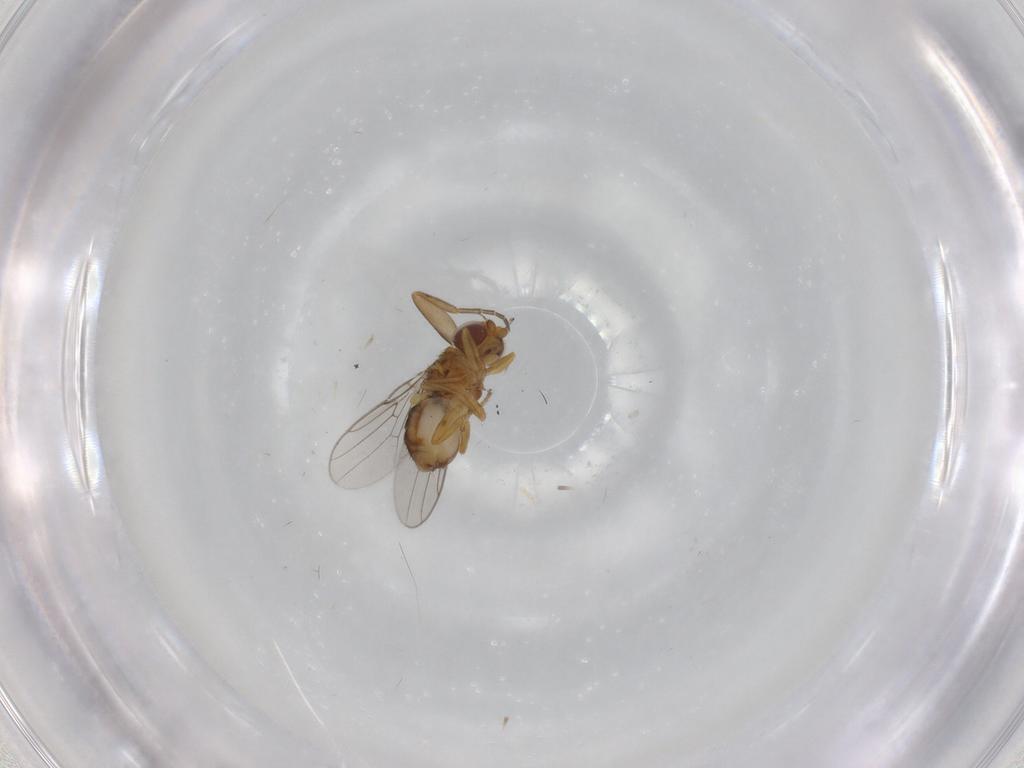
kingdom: Animalia
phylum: Arthropoda
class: Insecta
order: Diptera
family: Chloropidae
